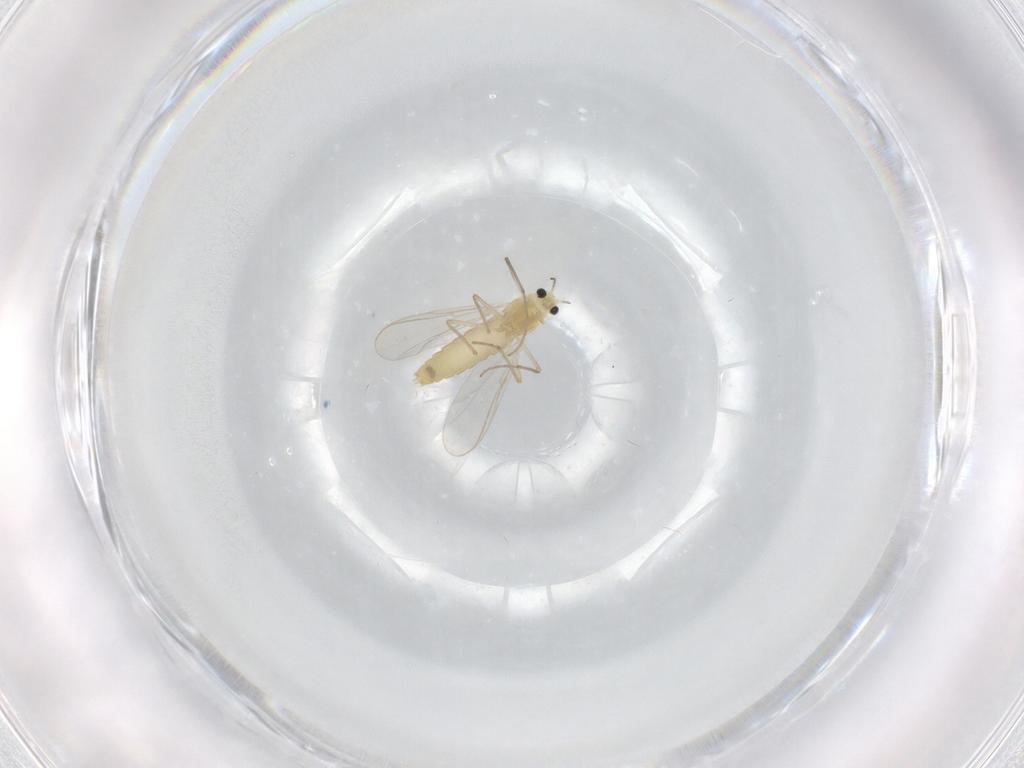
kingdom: Animalia
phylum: Arthropoda
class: Insecta
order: Diptera
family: Chironomidae
